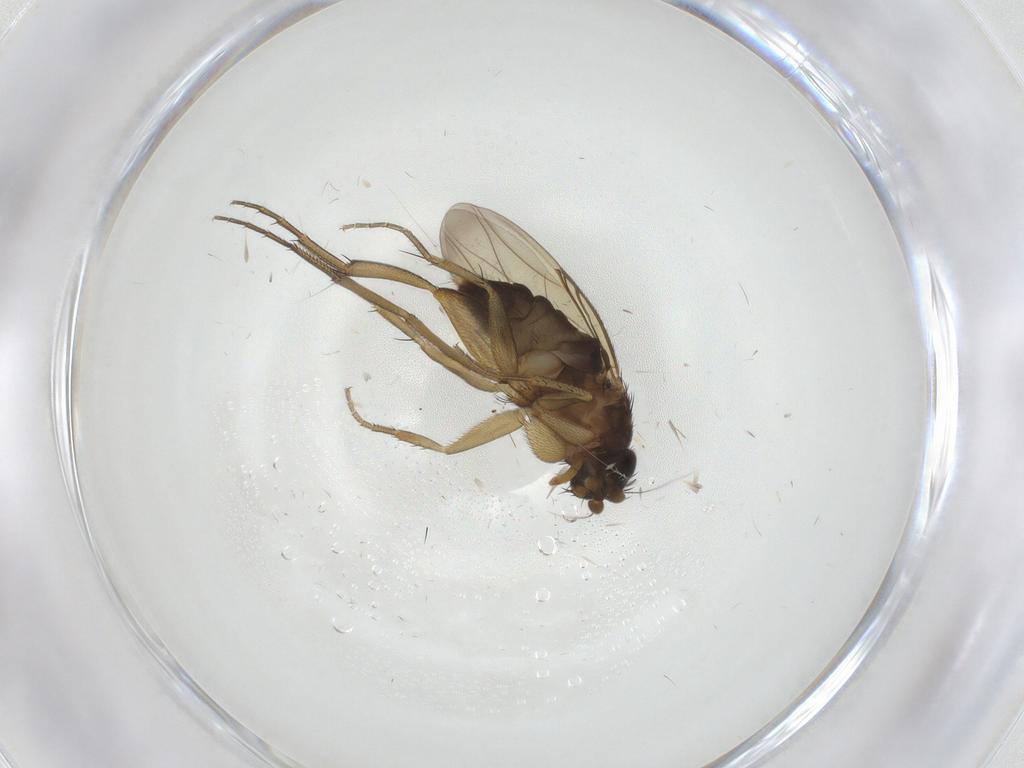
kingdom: Animalia
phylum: Arthropoda
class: Insecta
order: Diptera
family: Phoridae
